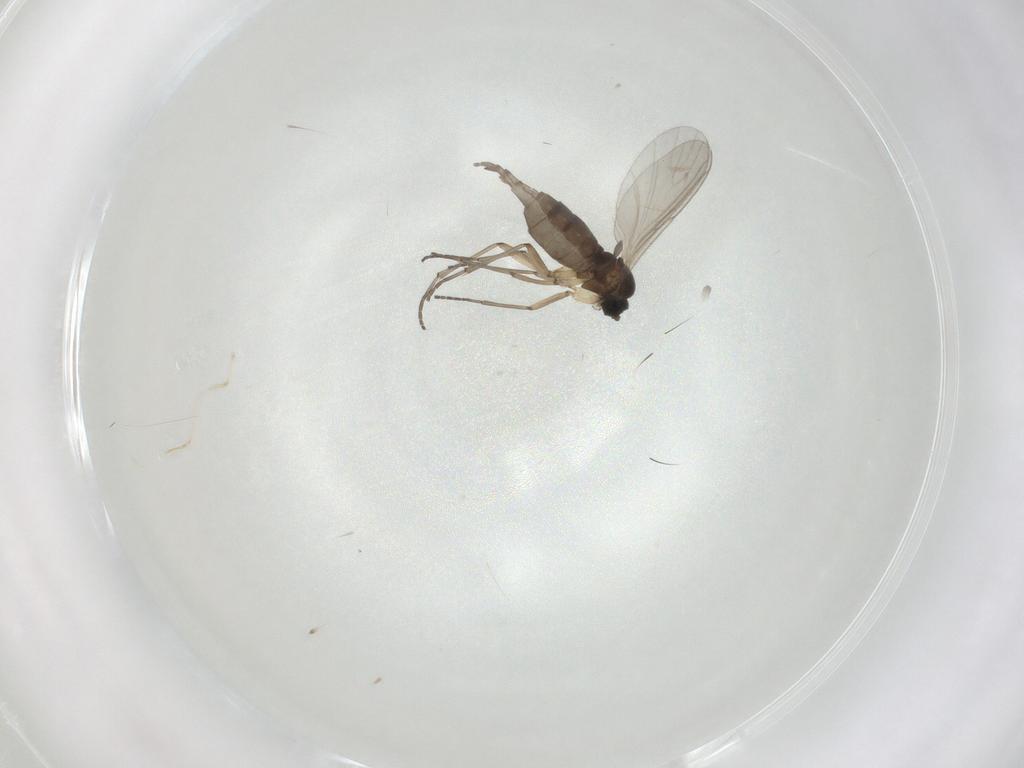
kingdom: Animalia
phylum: Arthropoda
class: Insecta
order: Diptera
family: Sciaridae
